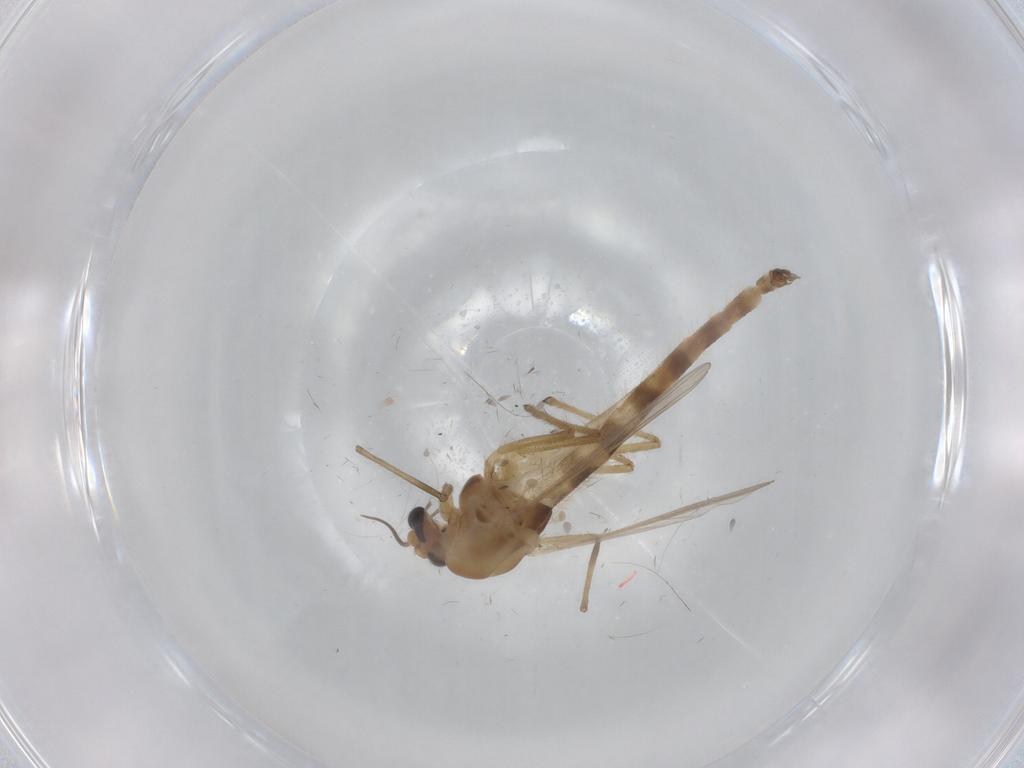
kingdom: Animalia
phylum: Arthropoda
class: Insecta
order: Diptera
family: Chironomidae
